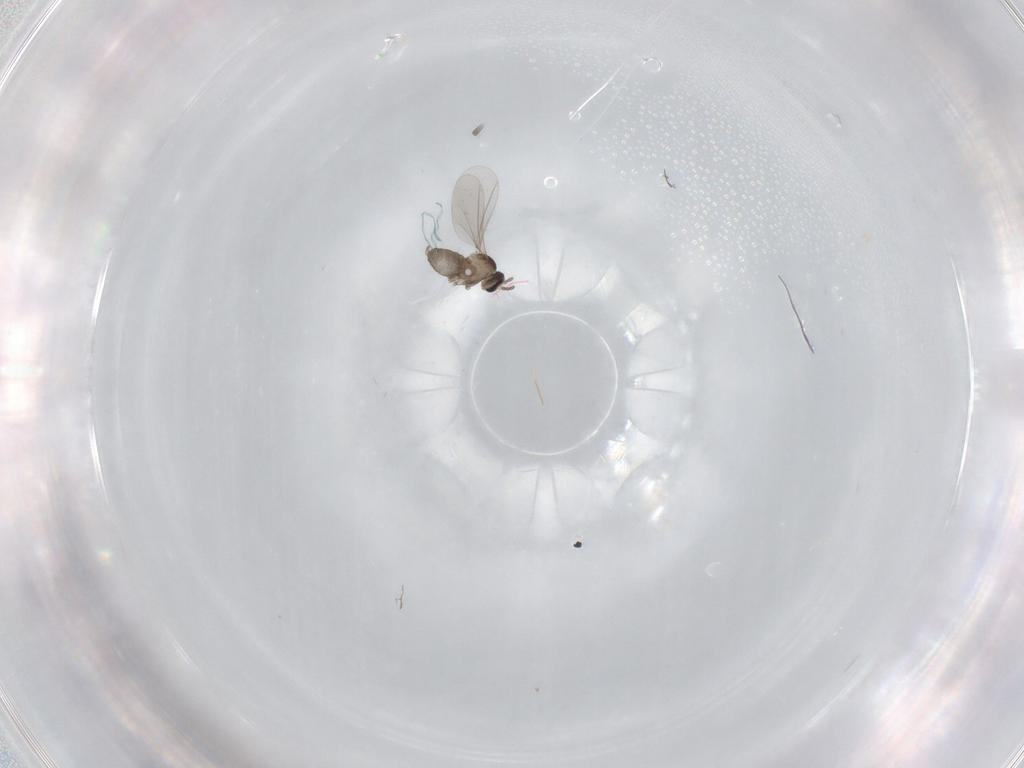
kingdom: Animalia
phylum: Arthropoda
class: Insecta
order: Diptera
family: Cecidomyiidae
